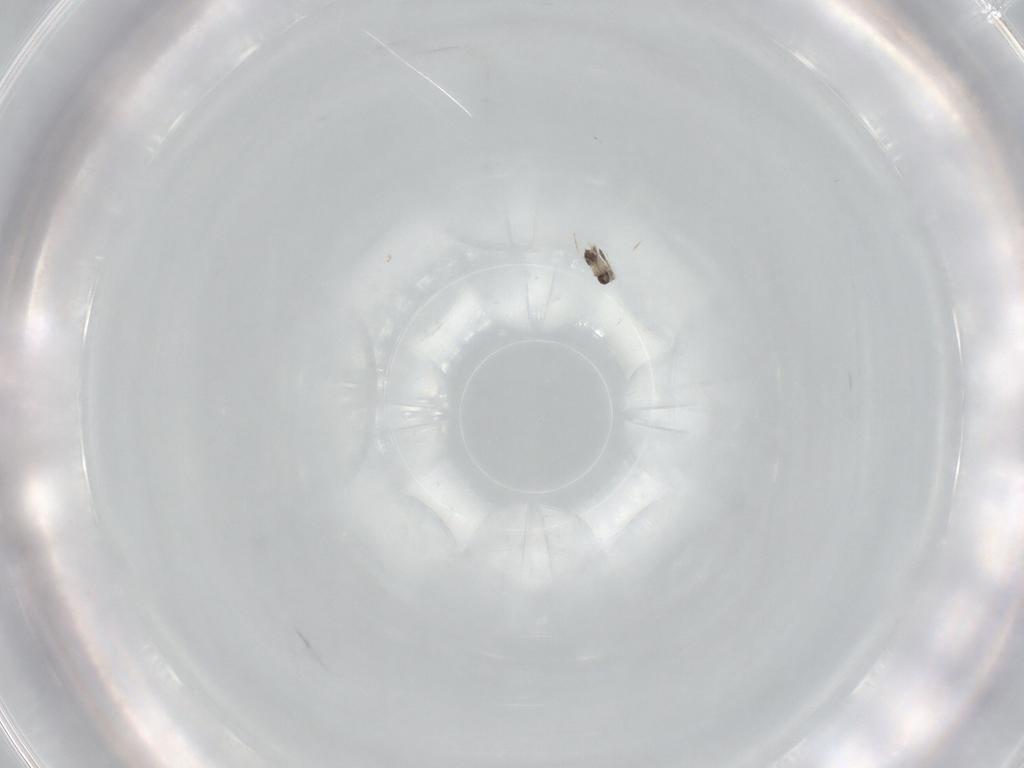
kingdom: Animalia
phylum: Arthropoda
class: Insecta
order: Hymenoptera
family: Mymaridae
